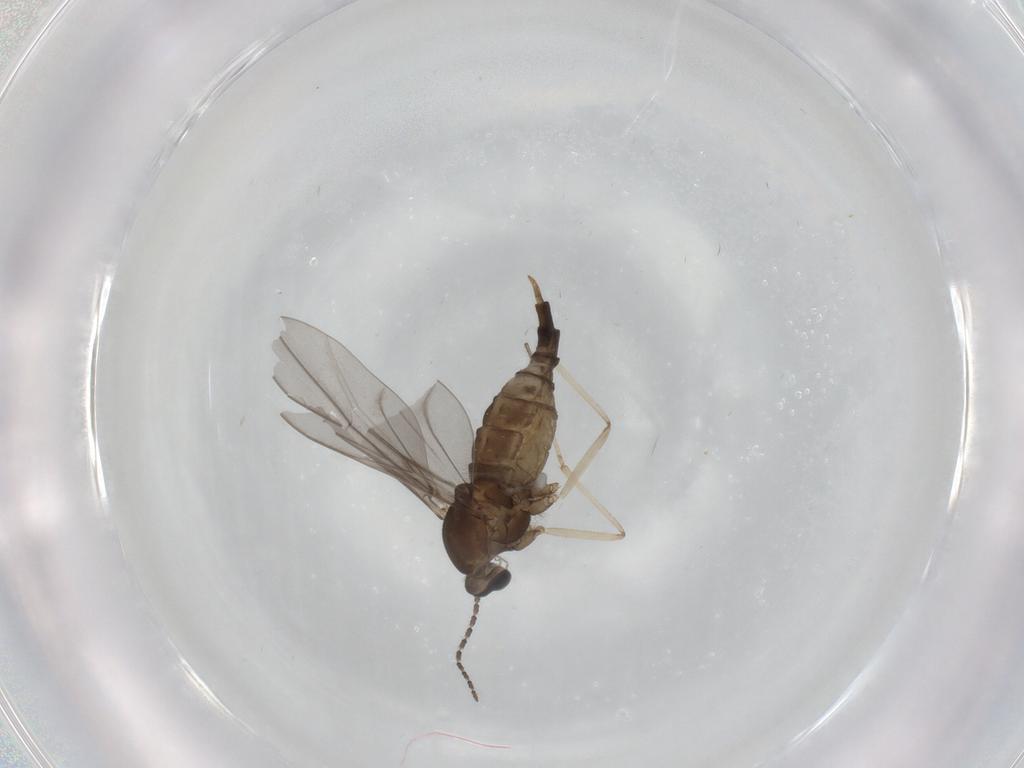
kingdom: Animalia
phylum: Arthropoda
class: Insecta
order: Diptera
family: Cecidomyiidae
